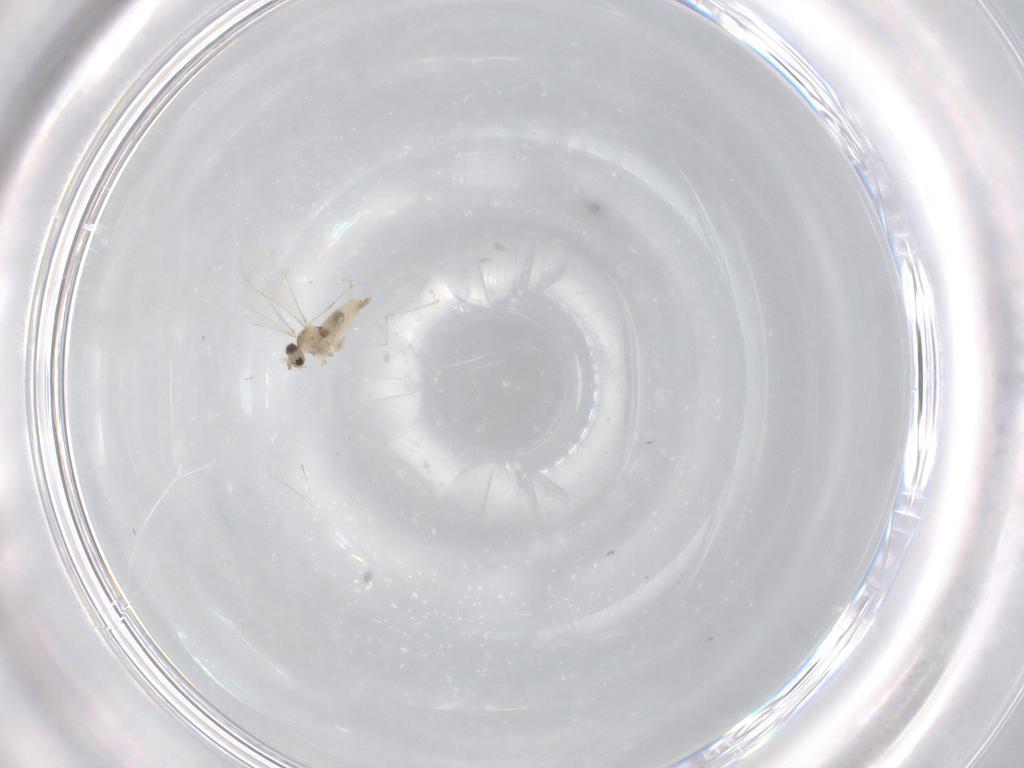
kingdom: Animalia
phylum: Arthropoda
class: Insecta
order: Diptera
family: Cecidomyiidae
